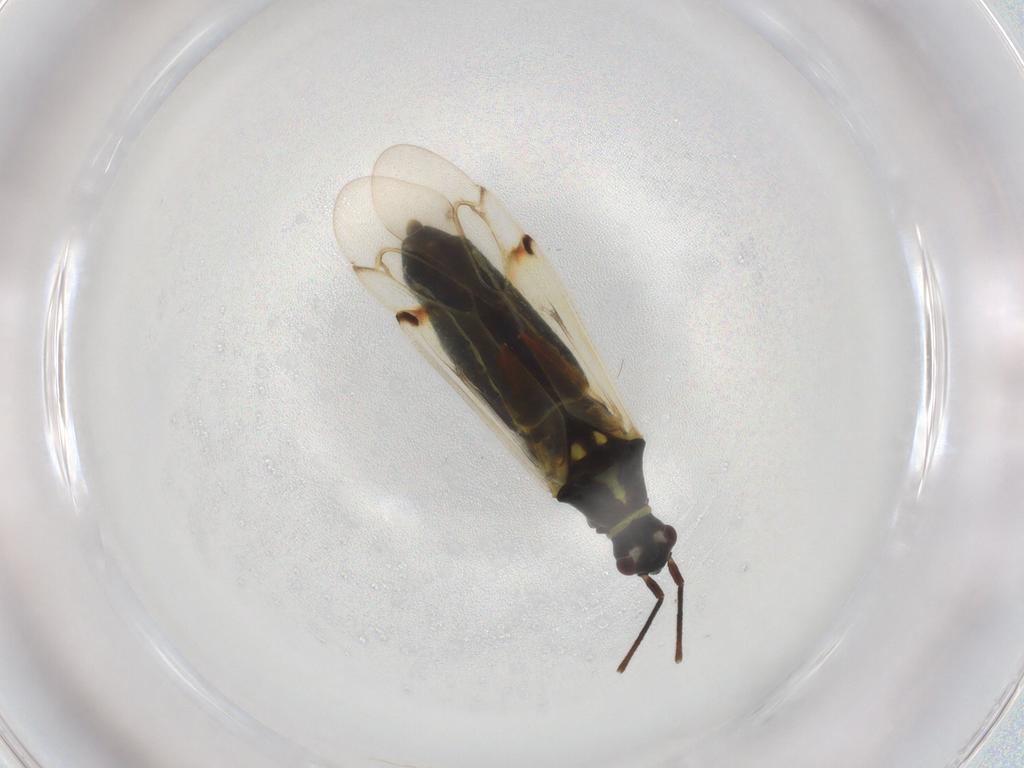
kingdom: Animalia
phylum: Arthropoda
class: Insecta
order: Hemiptera
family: Miridae
